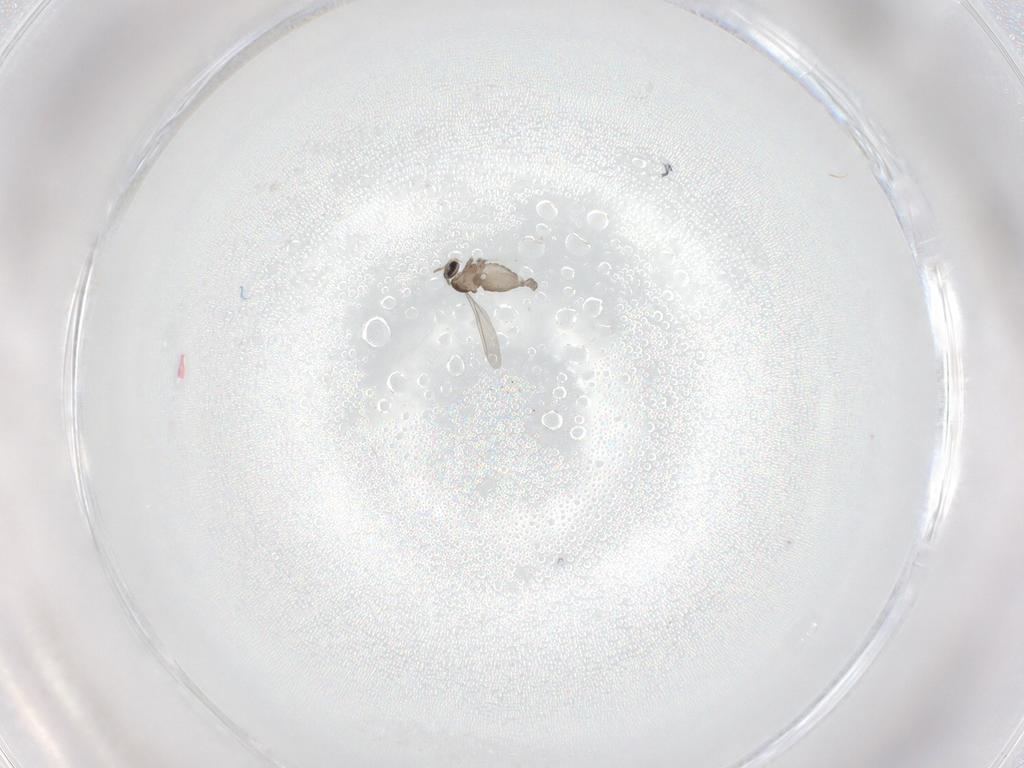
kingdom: Animalia
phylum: Arthropoda
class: Insecta
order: Diptera
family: Cecidomyiidae
